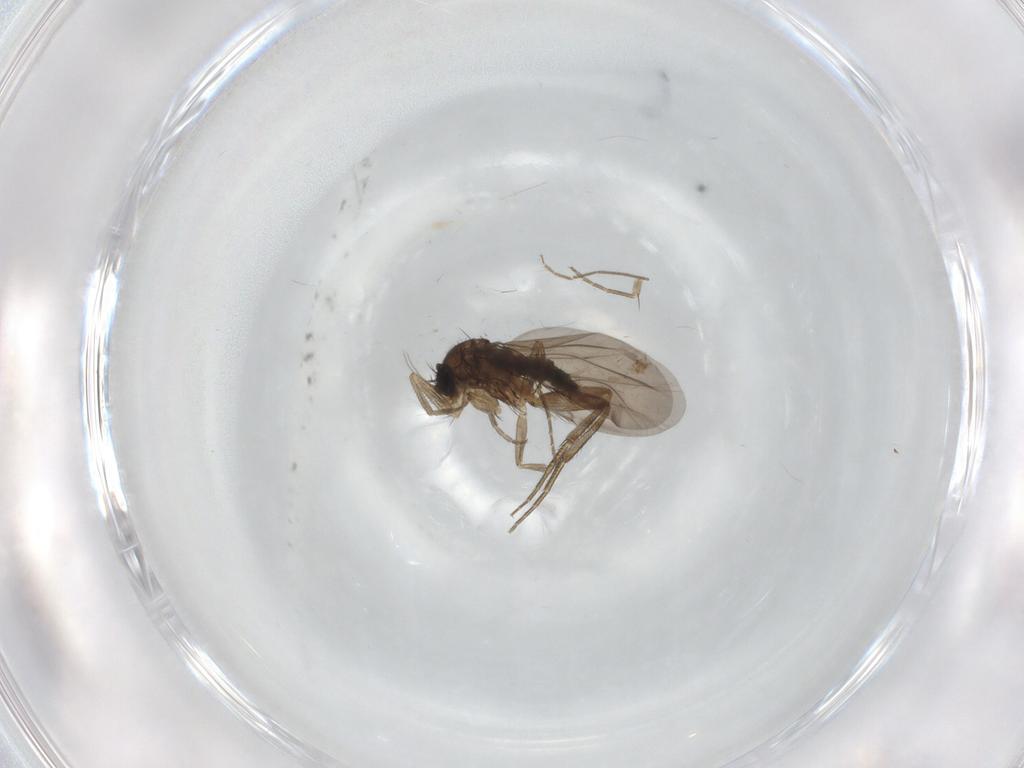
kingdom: Animalia
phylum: Arthropoda
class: Insecta
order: Diptera
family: Phoridae
